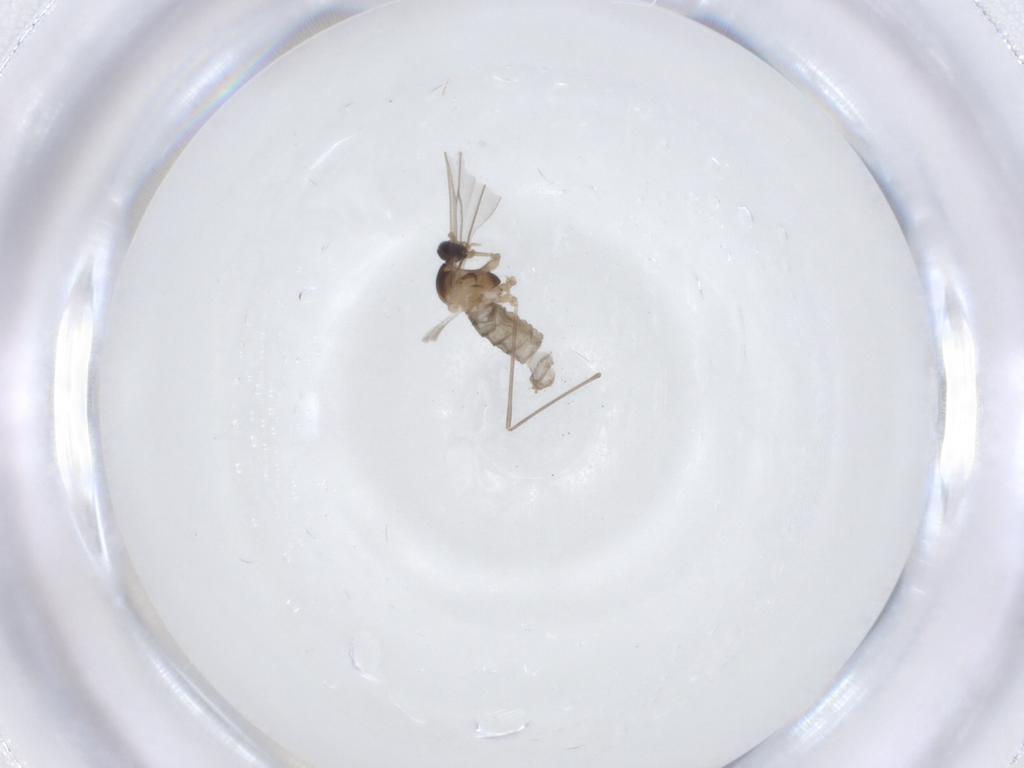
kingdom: Animalia
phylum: Arthropoda
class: Insecta
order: Diptera
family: Cecidomyiidae
